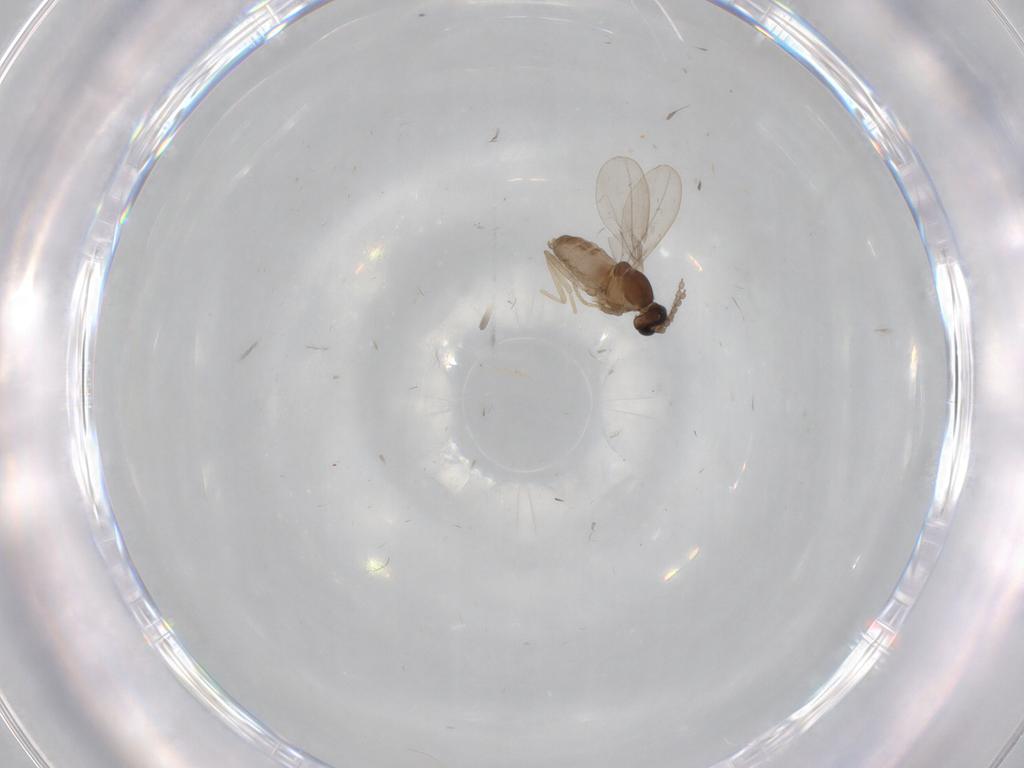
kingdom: Animalia
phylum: Arthropoda
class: Insecta
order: Diptera
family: Cecidomyiidae
